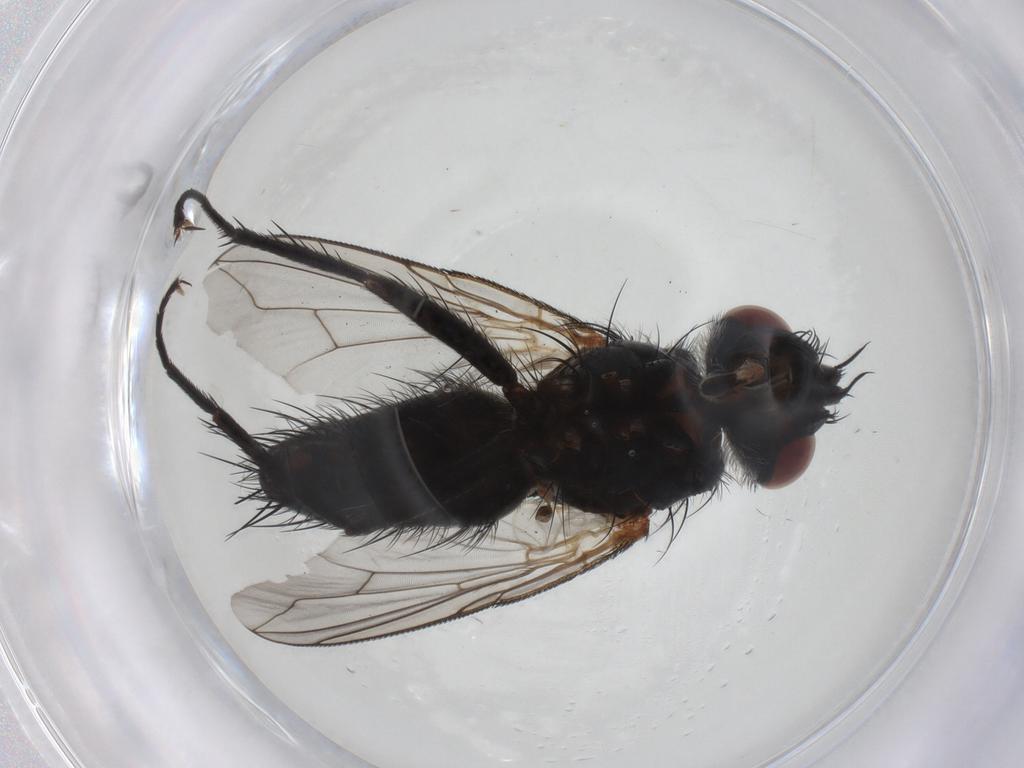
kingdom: Animalia
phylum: Arthropoda
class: Insecta
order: Diptera
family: Tachinidae
